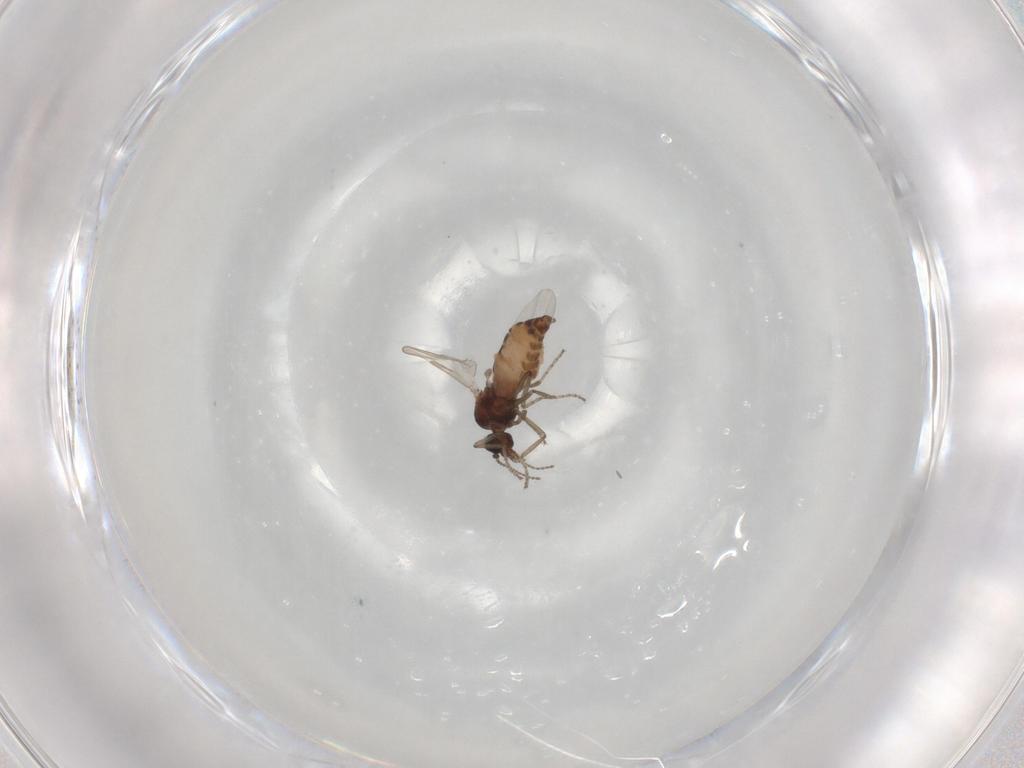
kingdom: Animalia
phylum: Arthropoda
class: Insecta
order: Diptera
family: Ceratopogonidae
